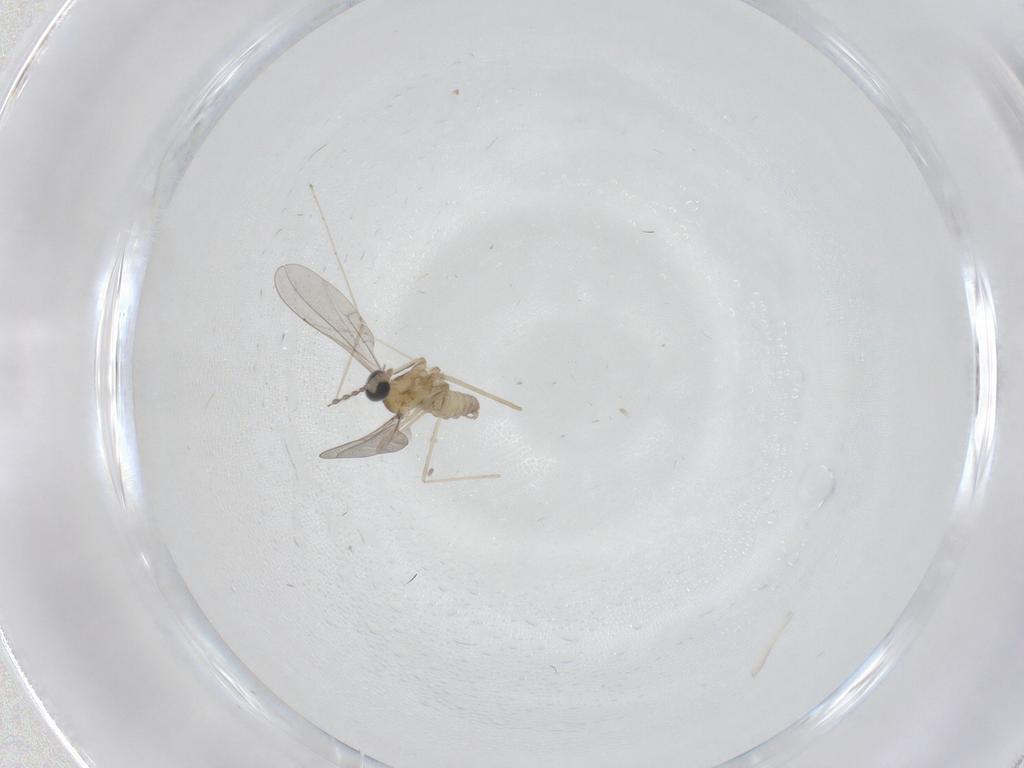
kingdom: Animalia
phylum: Arthropoda
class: Insecta
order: Diptera
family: Cecidomyiidae
